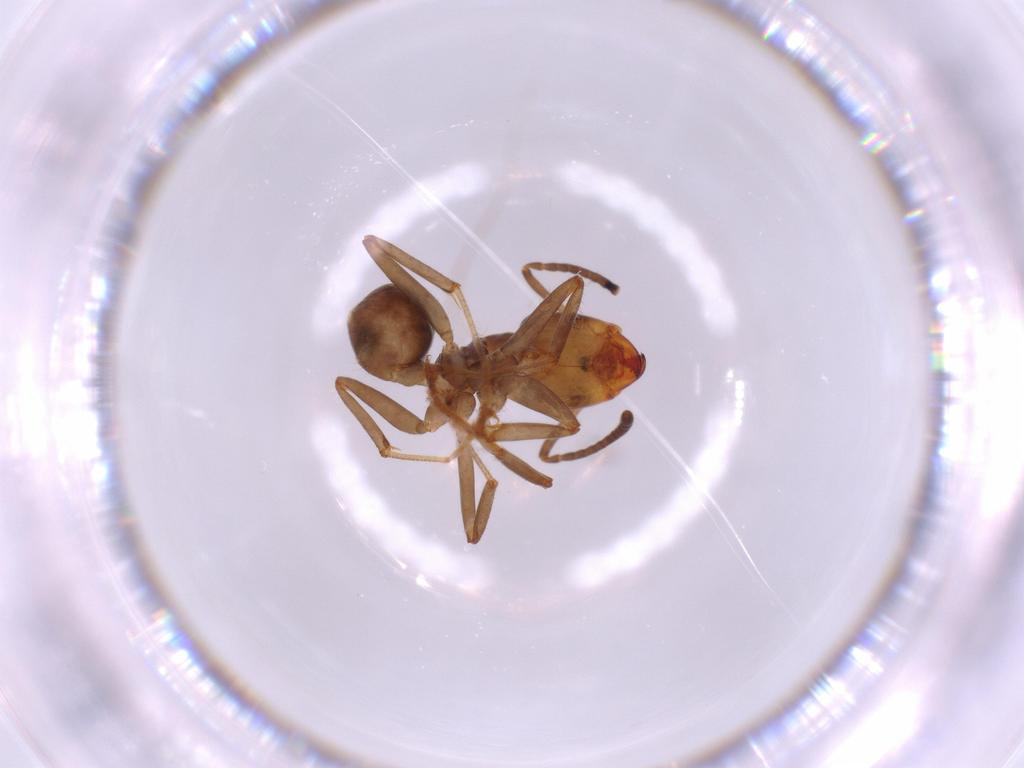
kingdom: Animalia
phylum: Arthropoda
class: Insecta
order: Hymenoptera
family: Formicidae
